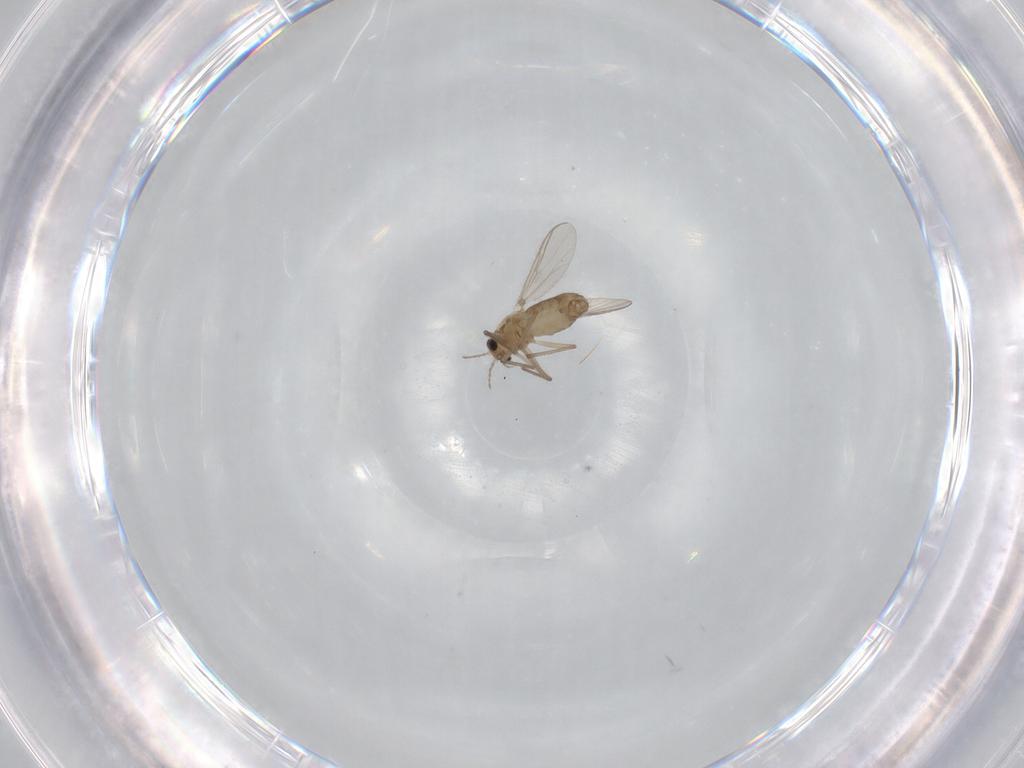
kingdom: Animalia
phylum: Arthropoda
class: Insecta
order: Diptera
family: Chironomidae
